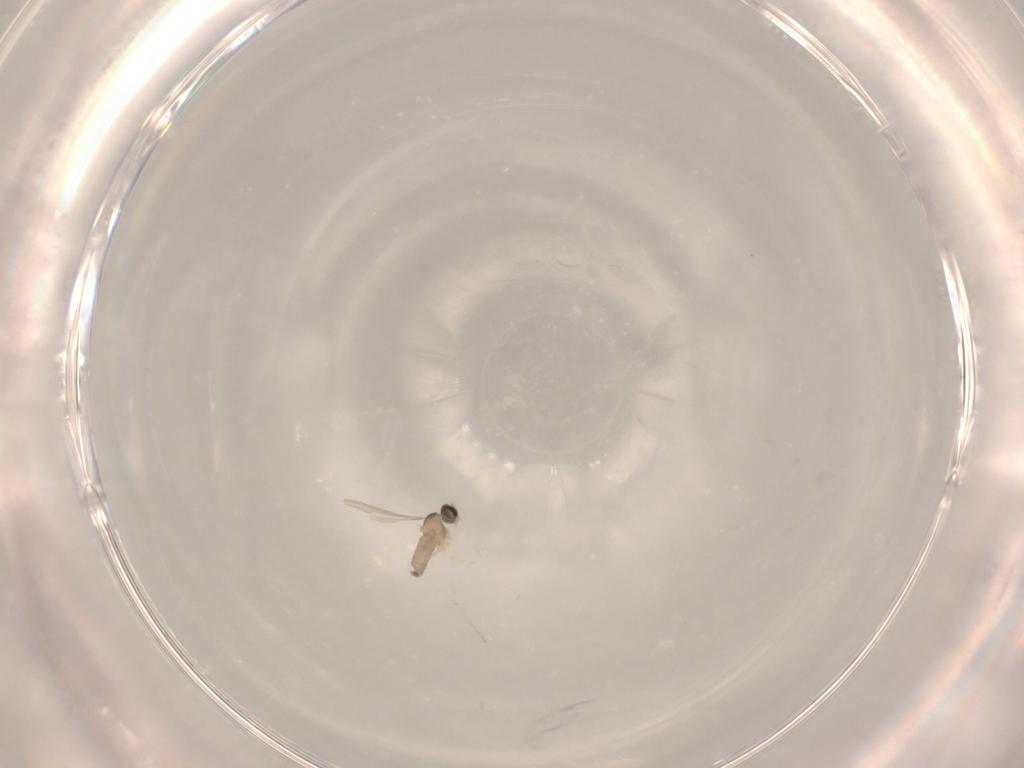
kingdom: Animalia
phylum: Arthropoda
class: Insecta
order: Diptera
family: Cecidomyiidae
